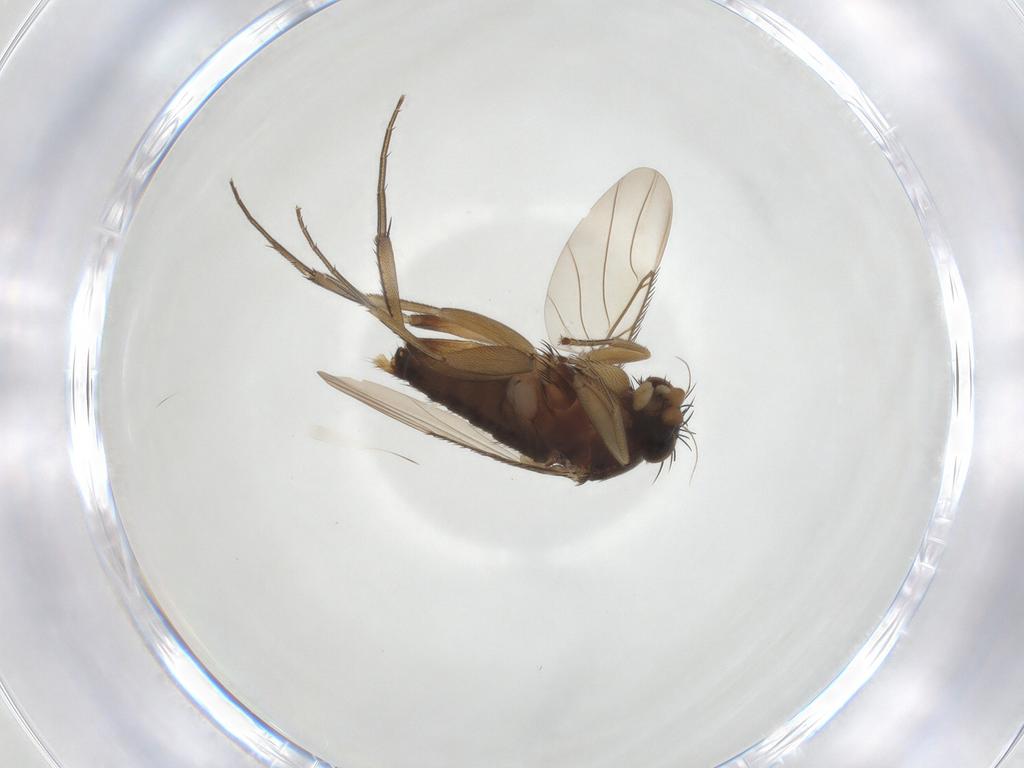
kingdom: Animalia
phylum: Arthropoda
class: Insecta
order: Diptera
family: Phoridae
